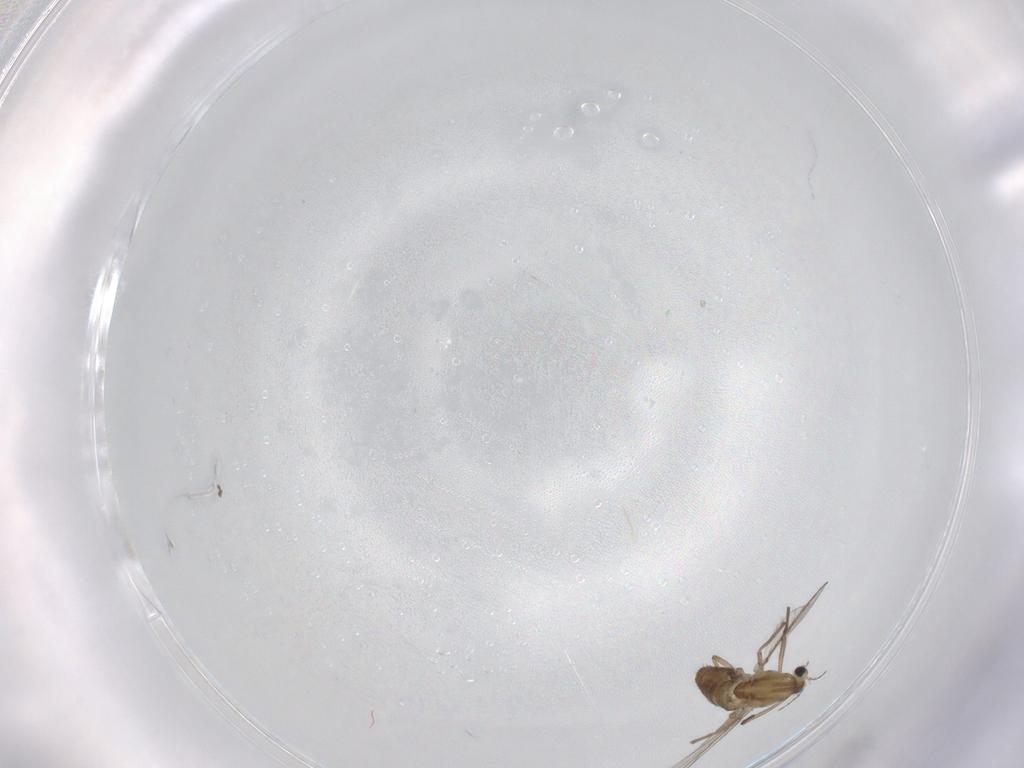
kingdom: Animalia
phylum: Arthropoda
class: Insecta
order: Diptera
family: Chironomidae
